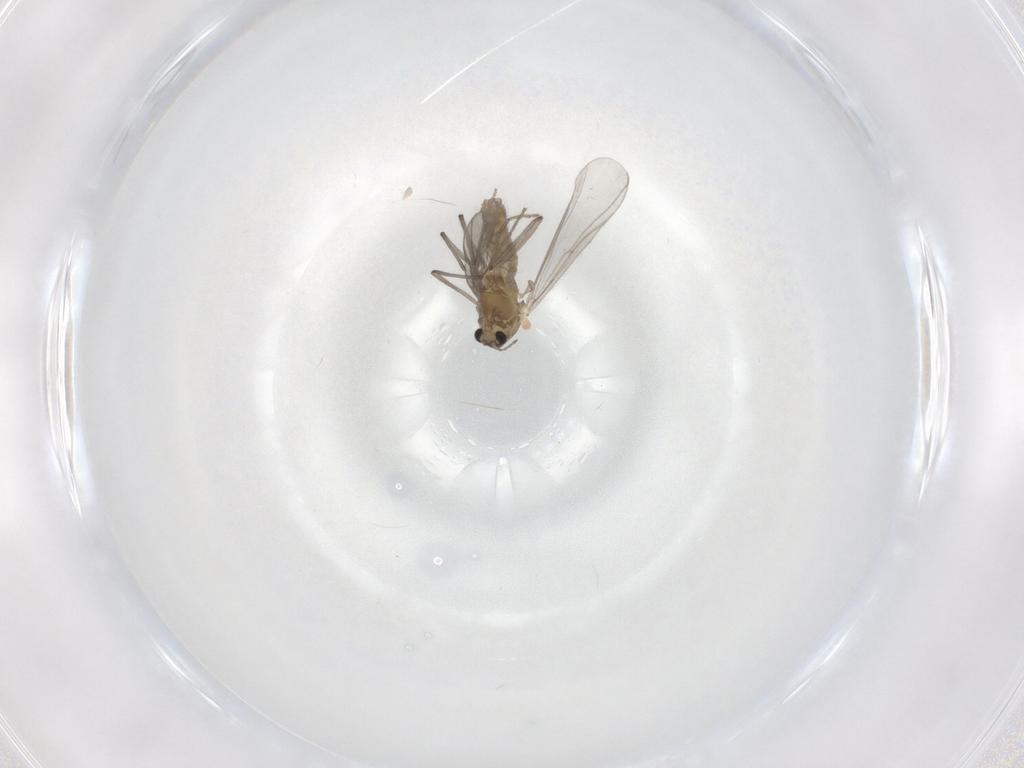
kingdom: Animalia
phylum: Arthropoda
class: Insecta
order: Diptera
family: Chironomidae
